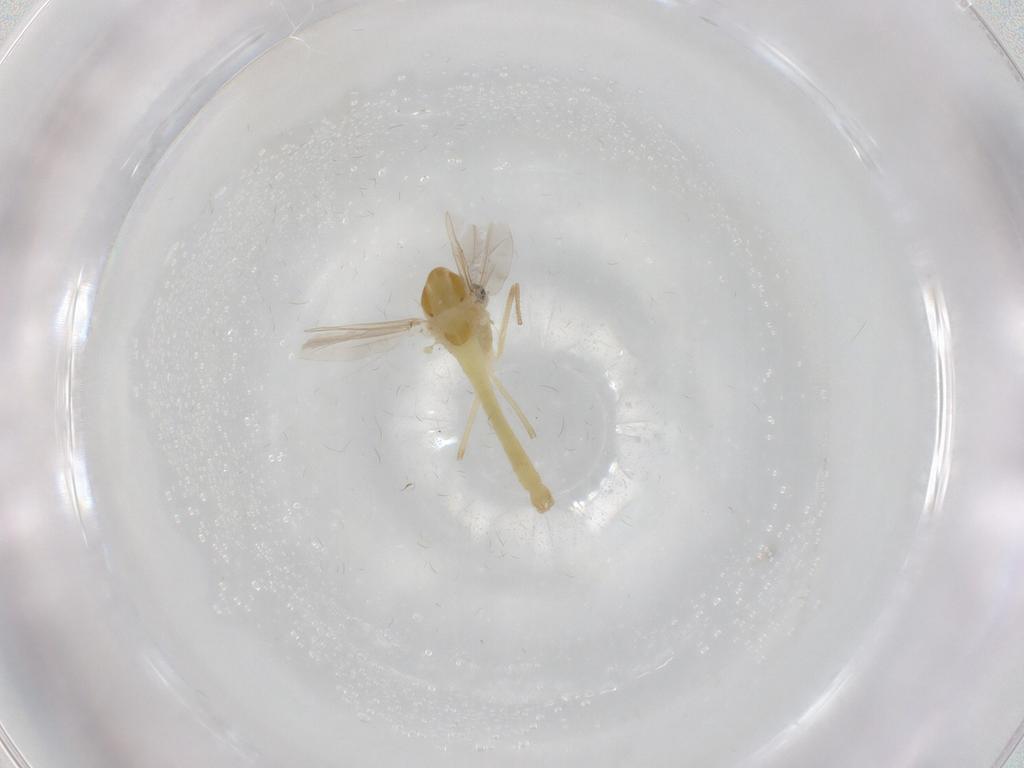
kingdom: Animalia
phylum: Arthropoda
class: Insecta
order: Diptera
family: Chironomidae
